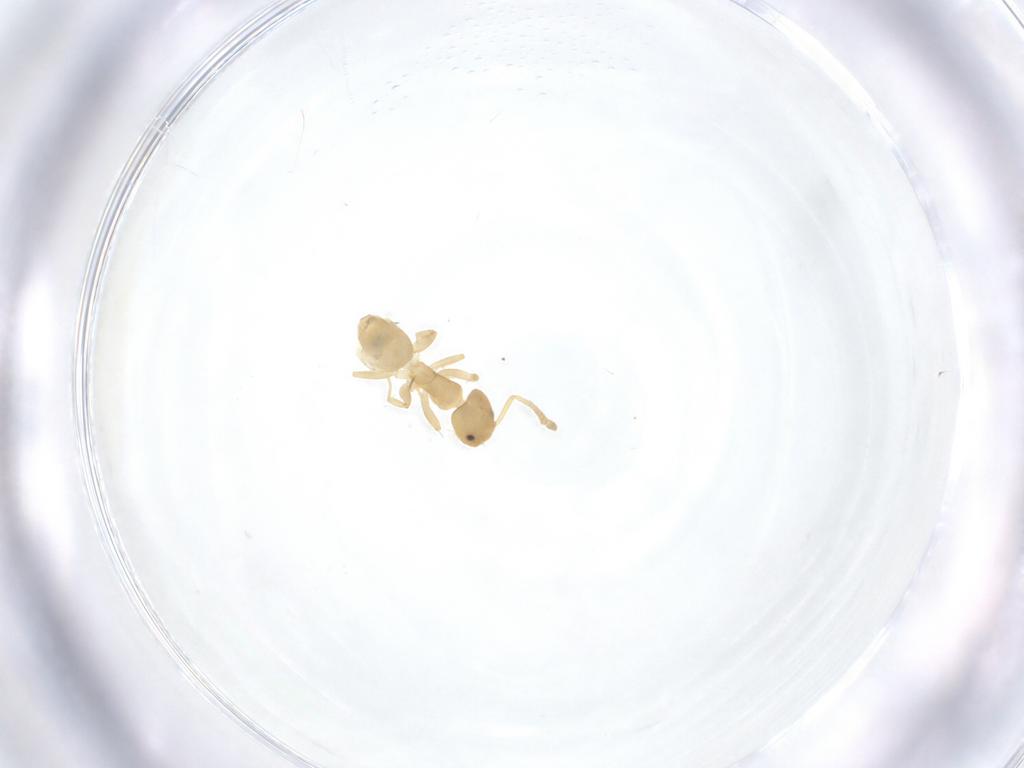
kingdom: Animalia
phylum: Arthropoda
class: Insecta
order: Hymenoptera
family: Formicidae
